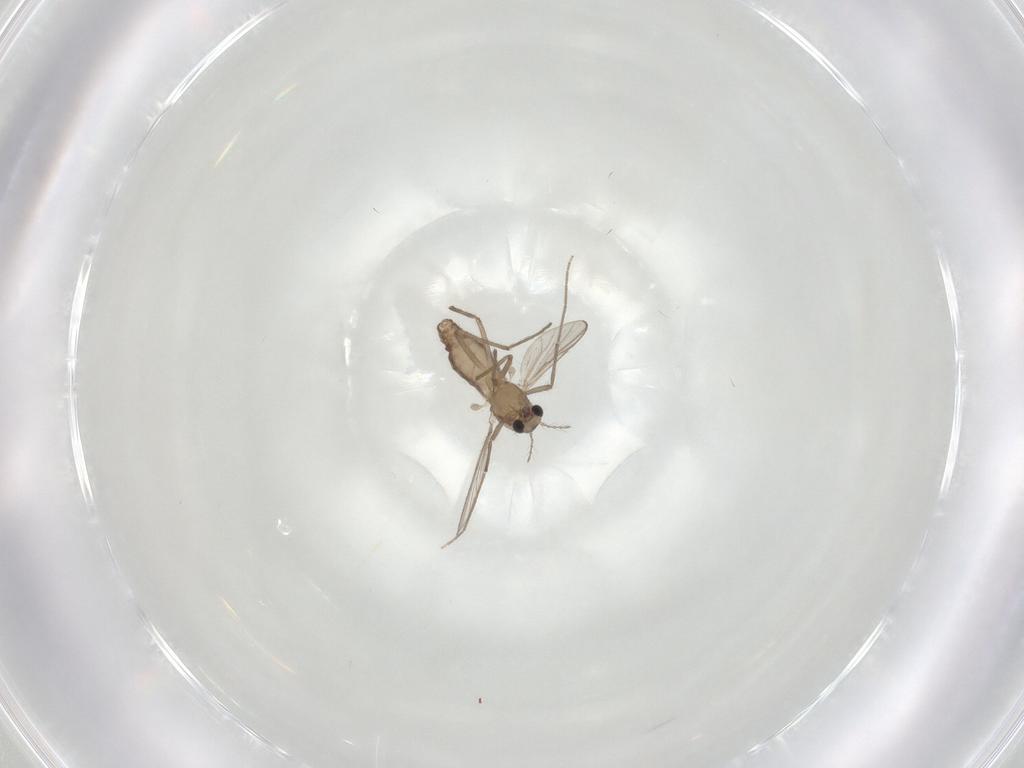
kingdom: Animalia
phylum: Arthropoda
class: Insecta
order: Diptera
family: Chironomidae
